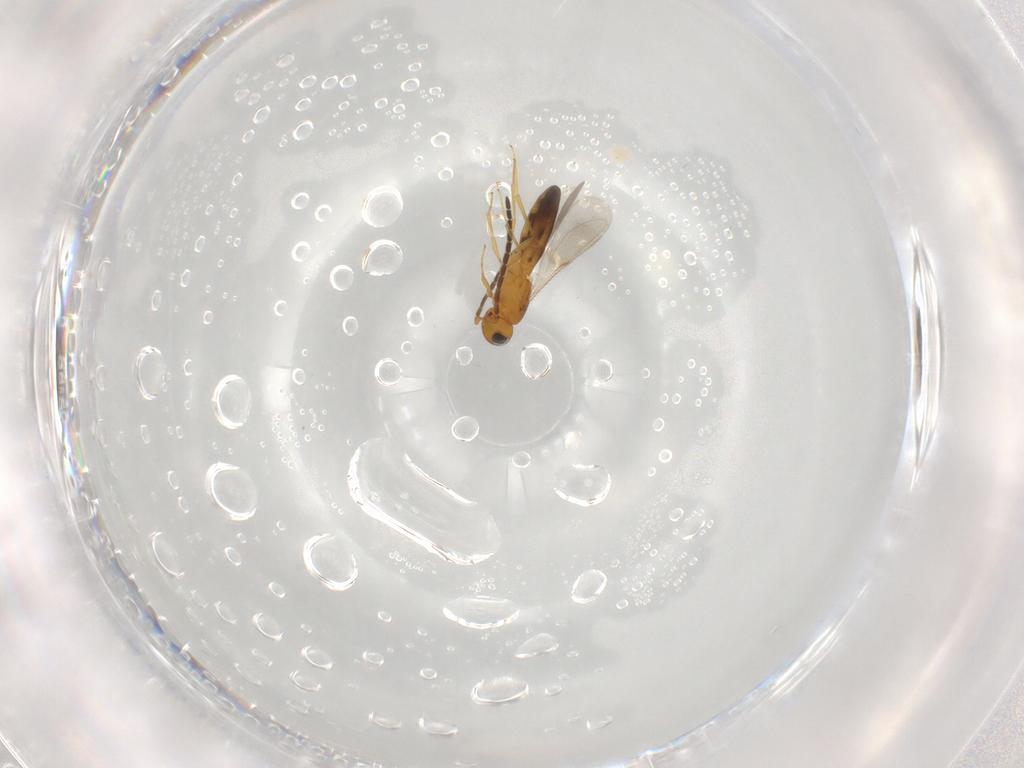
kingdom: Animalia
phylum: Arthropoda
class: Insecta
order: Hymenoptera
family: Scelionidae
